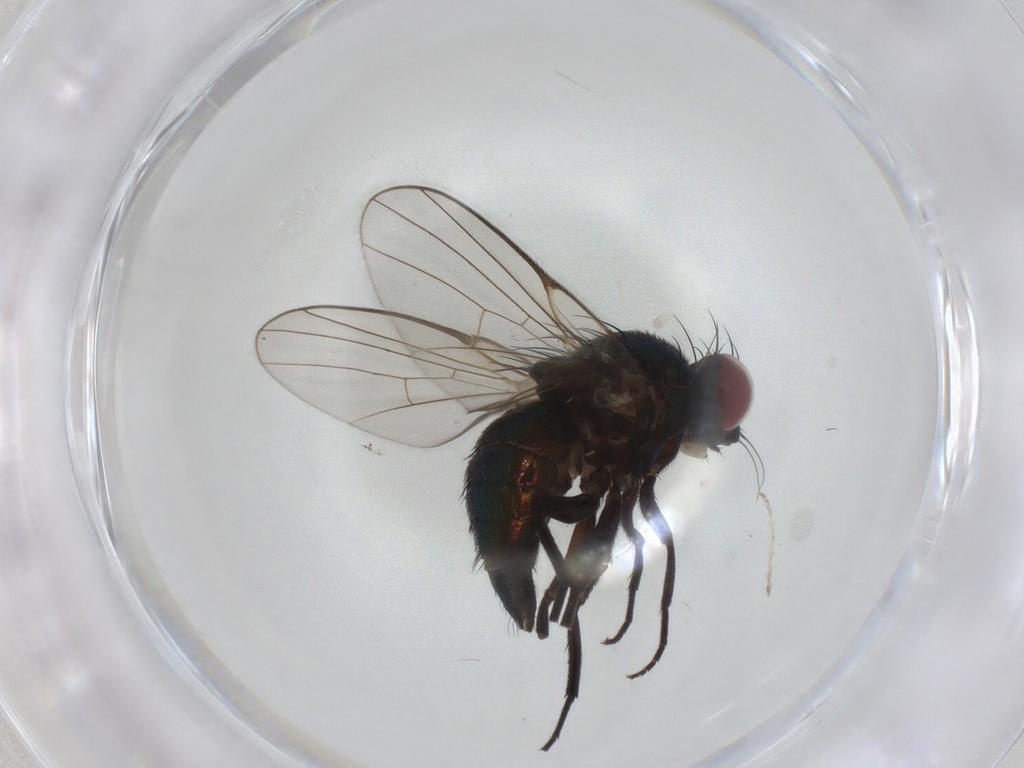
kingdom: Animalia
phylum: Arthropoda
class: Insecta
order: Diptera
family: Agromyzidae
